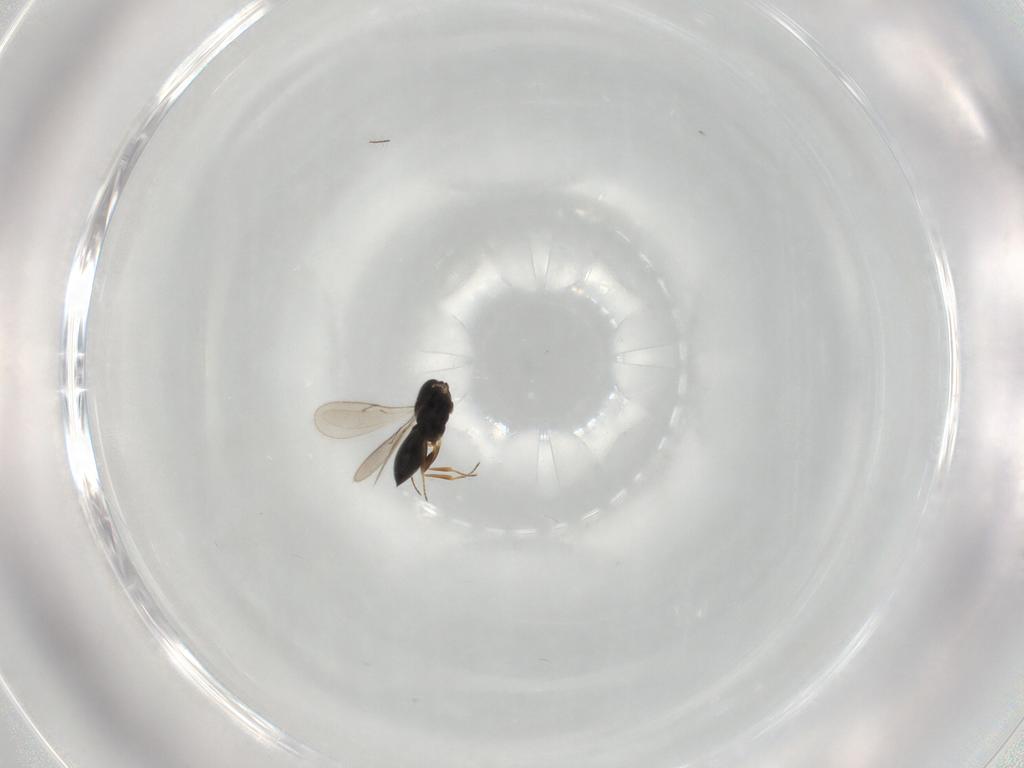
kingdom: Animalia
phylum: Arthropoda
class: Insecta
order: Hymenoptera
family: Scelionidae
